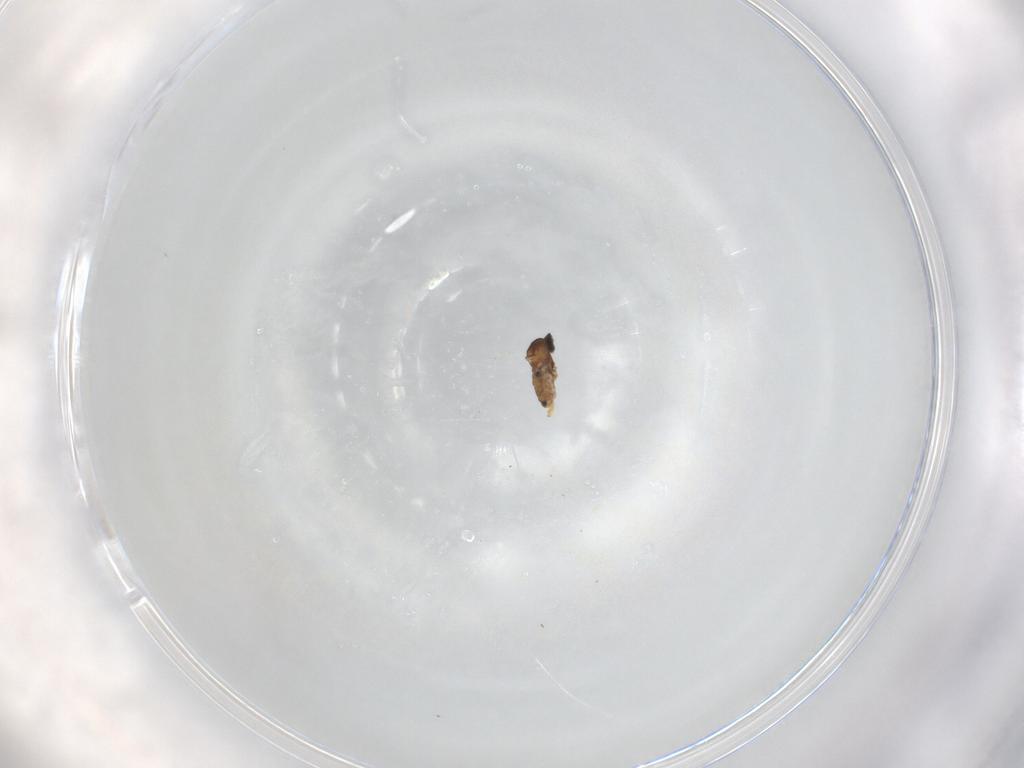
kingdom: Animalia
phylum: Arthropoda
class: Insecta
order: Diptera
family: Cecidomyiidae
